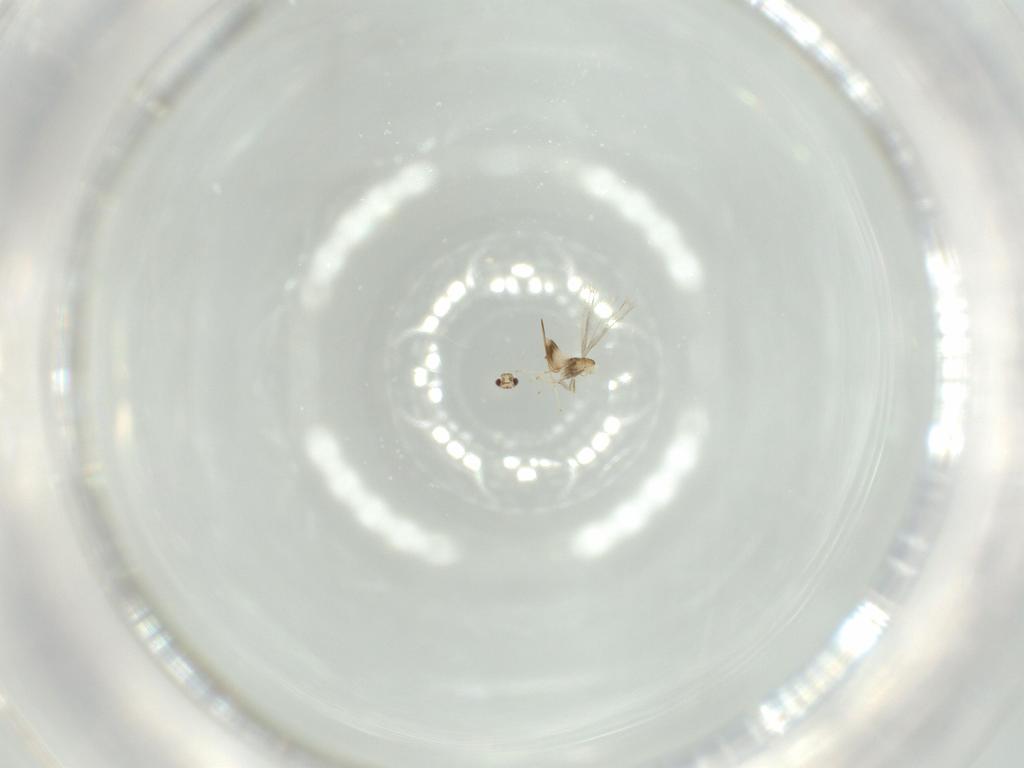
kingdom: Animalia
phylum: Arthropoda
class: Insecta
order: Hymenoptera
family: Mymaridae
